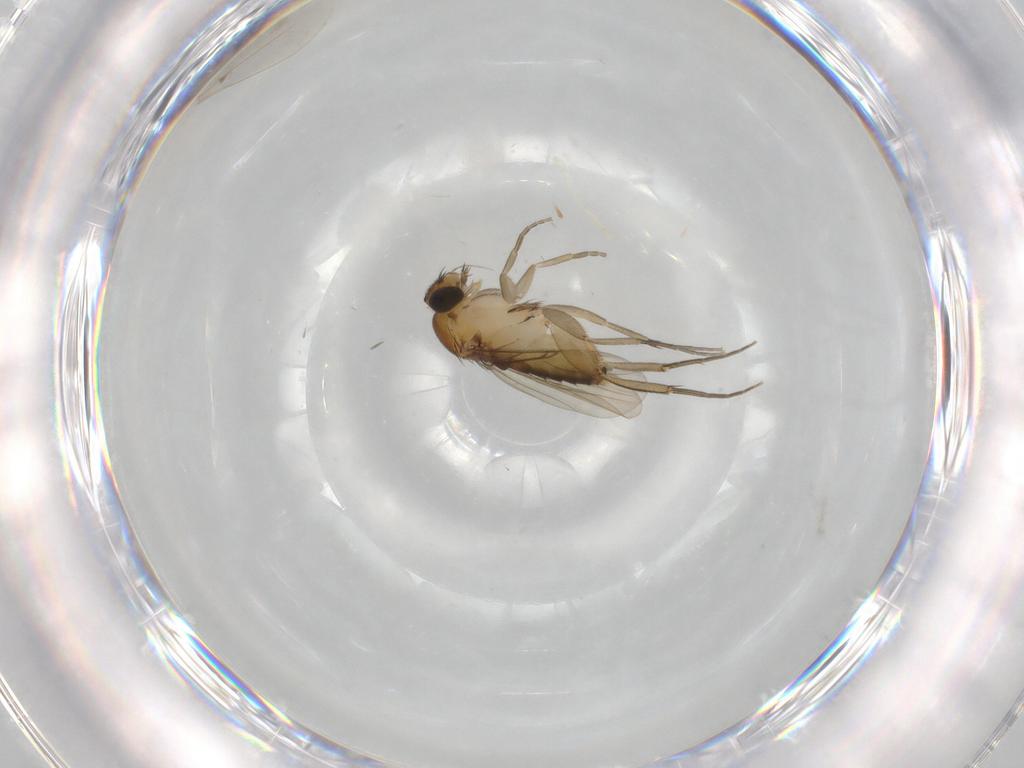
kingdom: Animalia
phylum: Arthropoda
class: Insecta
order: Diptera
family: Phoridae
